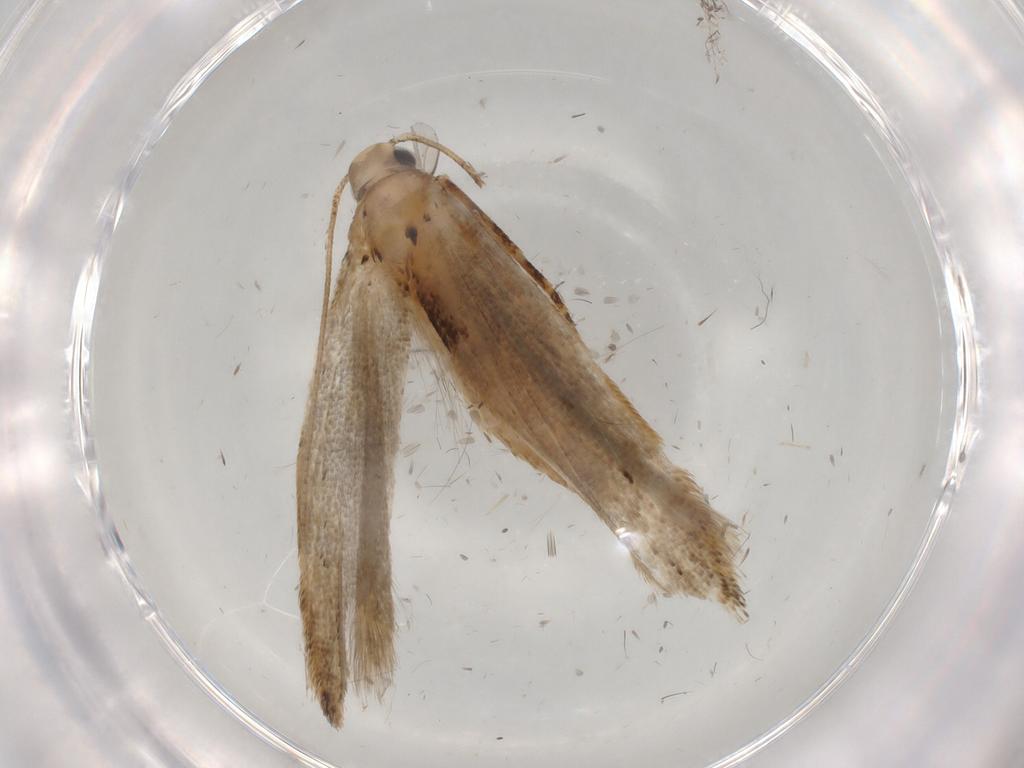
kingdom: Animalia
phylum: Arthropoda
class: Insecta
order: Lepidoptera
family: Gelechiidae
